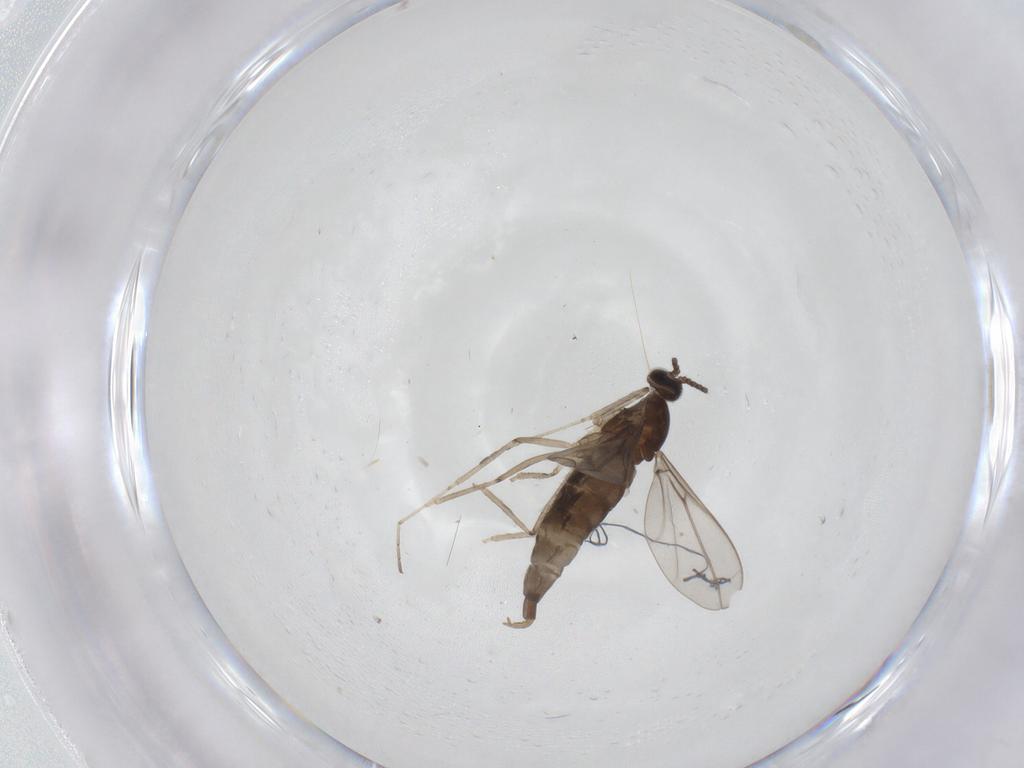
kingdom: Animalia
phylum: Arthropoda
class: Insecta
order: Diptera
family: Cecidomyiidae
